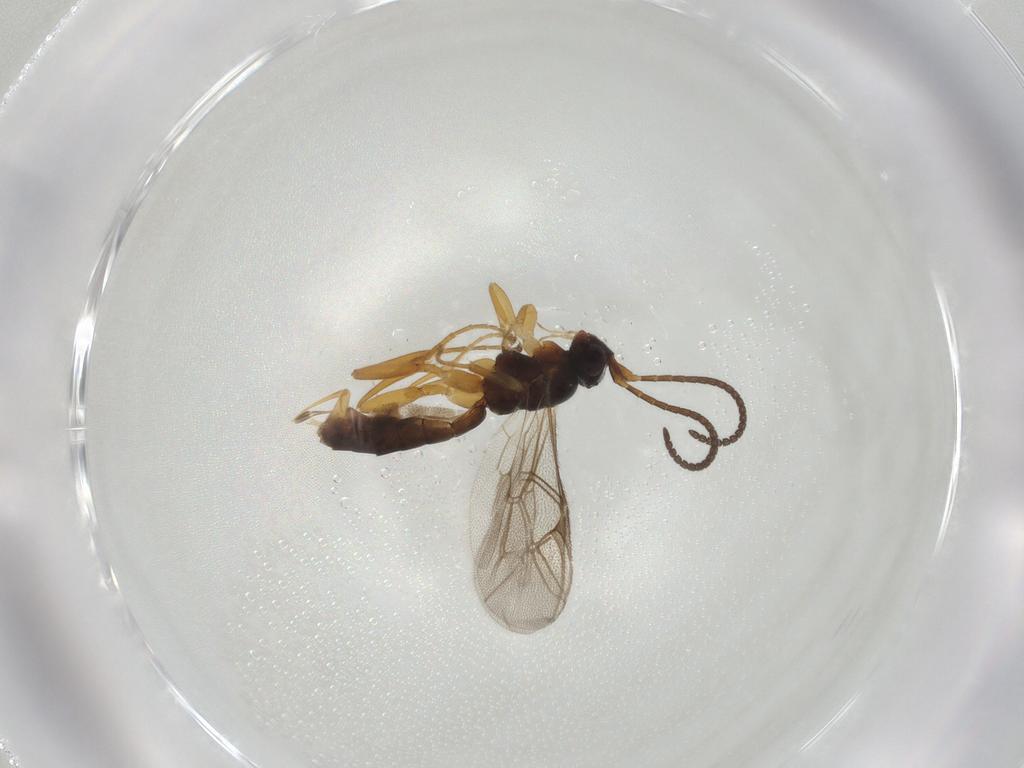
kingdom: Animalia
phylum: Arthropoda
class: Insecta
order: Hymenoptera
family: Ichneumonidae
